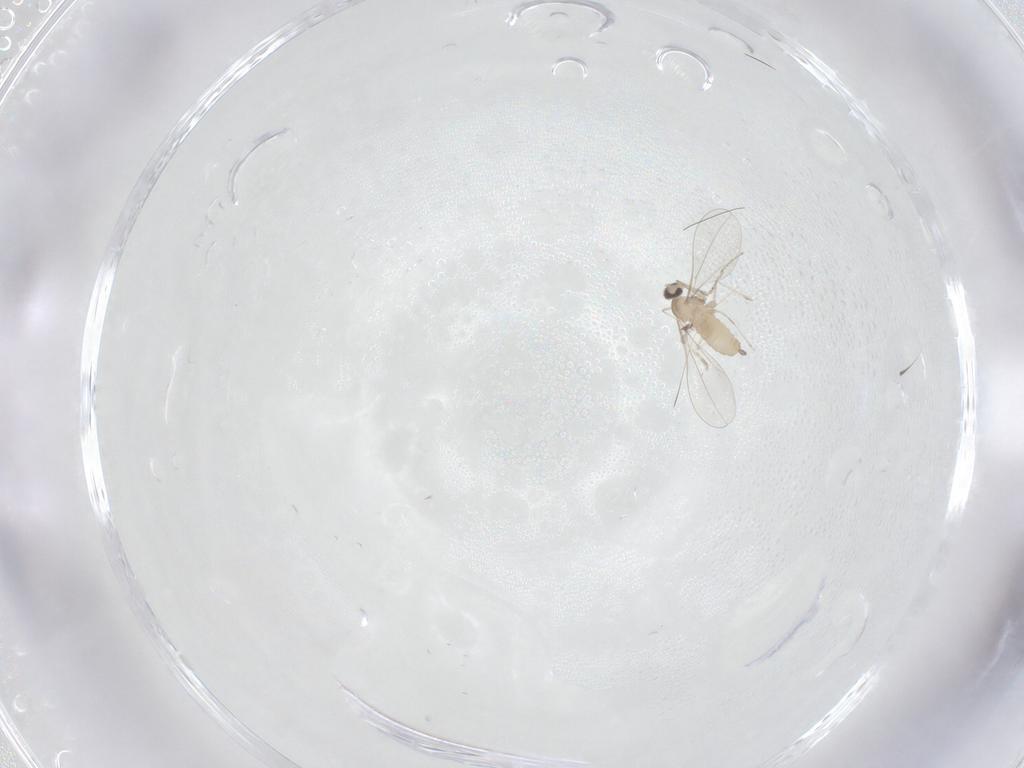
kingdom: Animalia
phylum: Arthropoda
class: Insecta
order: Diptera
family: Cecidomyiidae
